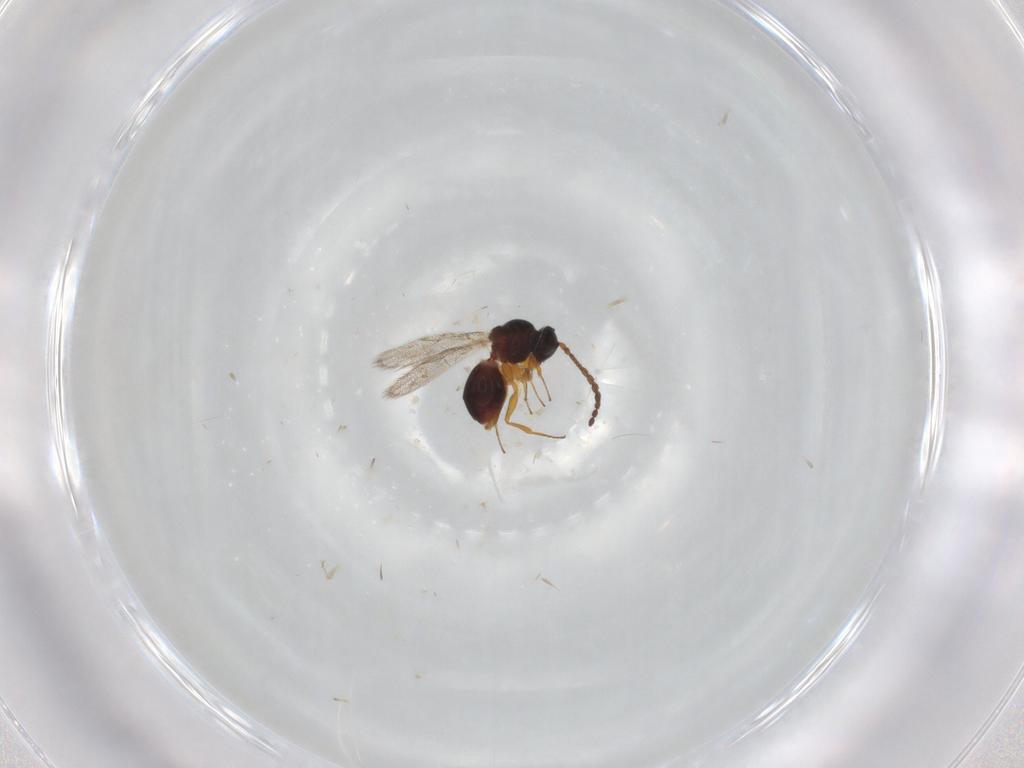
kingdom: Animalia
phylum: Arthropoda
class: Insecta
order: Hymenoptera
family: Figitidae
